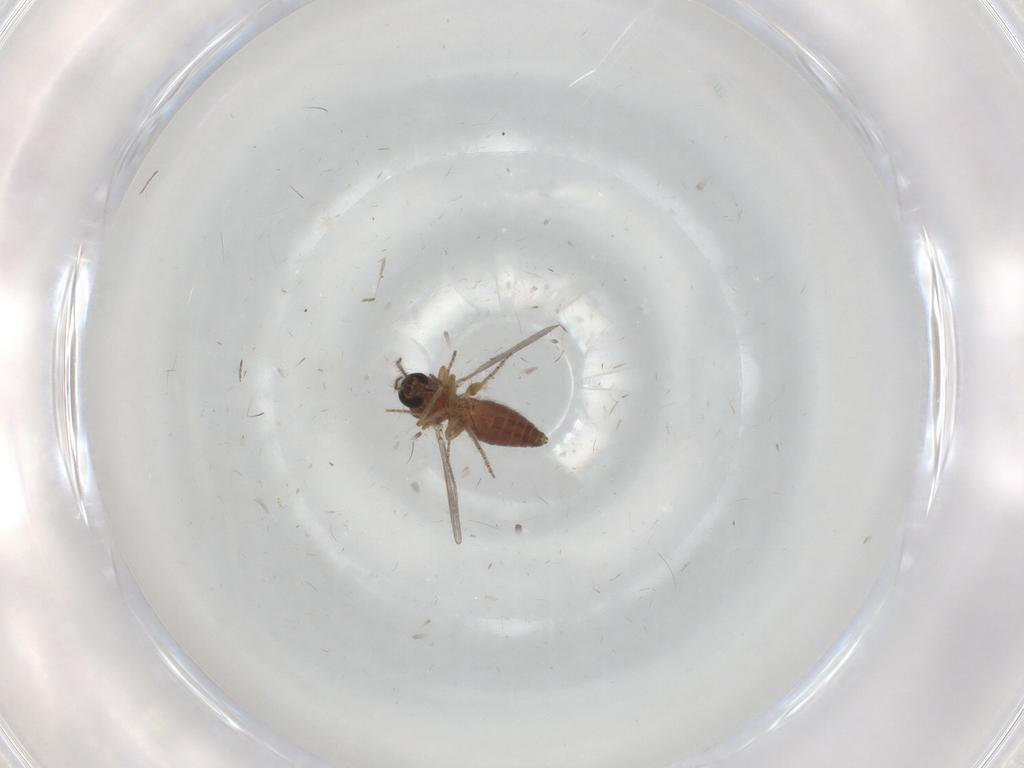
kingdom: Animalia
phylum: Arthropoda
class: Insecta
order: Diptera
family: Ceratopogonidae
